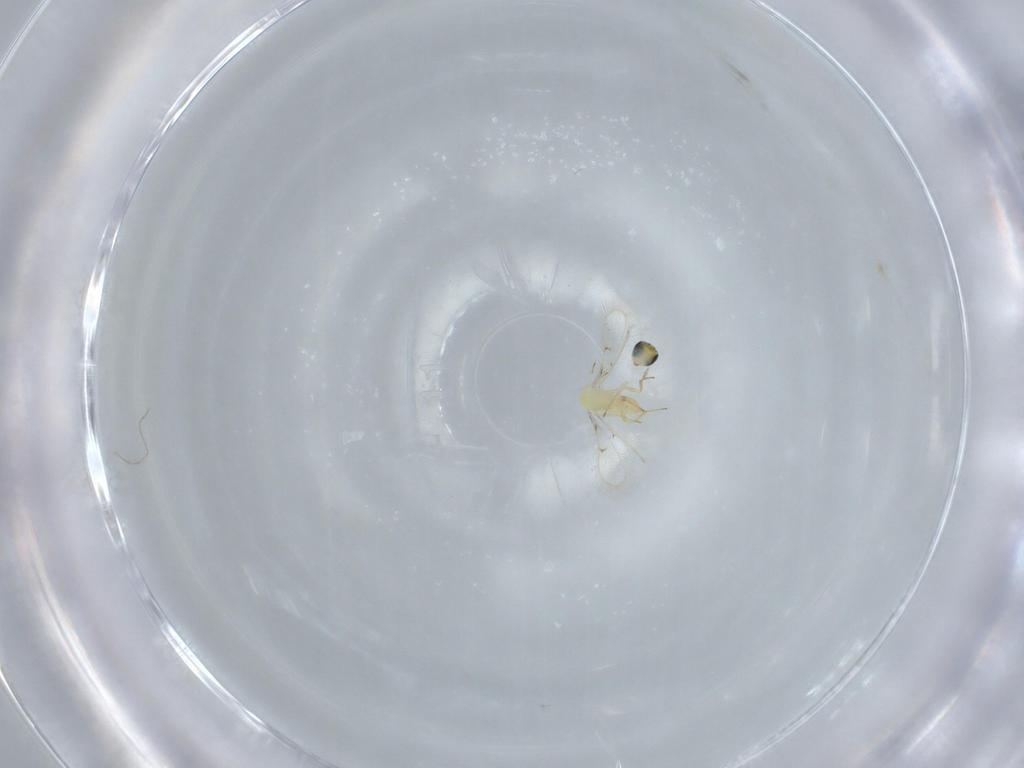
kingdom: Animalia
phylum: Arthropoda
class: Insecta
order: Hymenoptera
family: Trichogrammatidae
